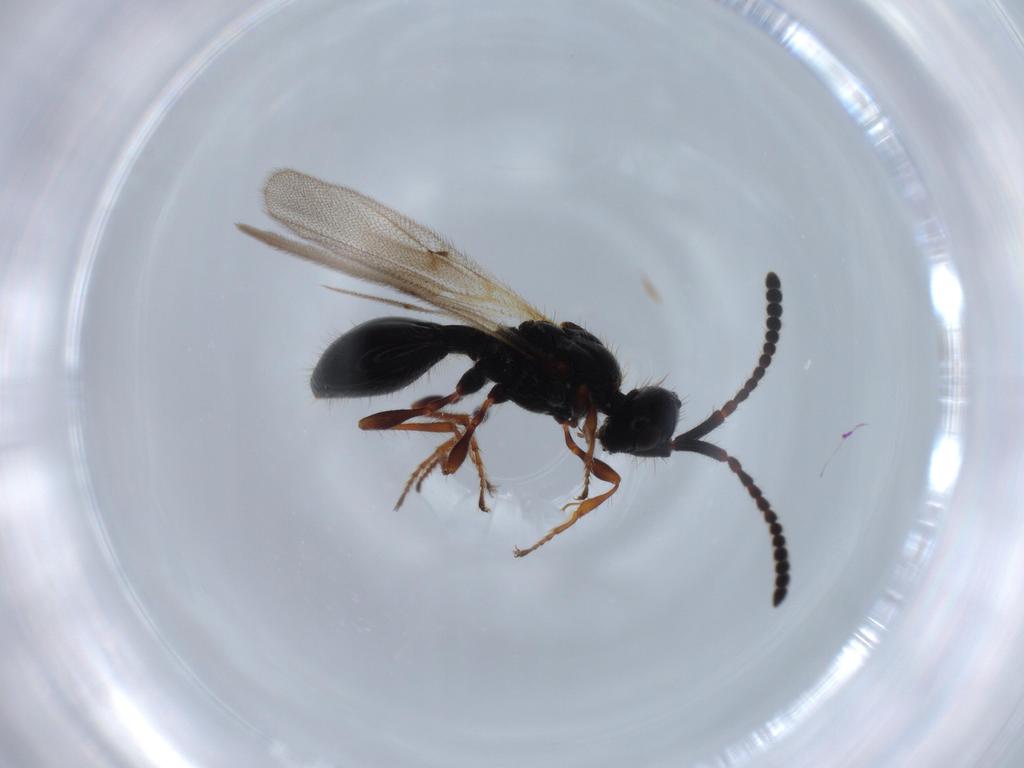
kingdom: Animalia
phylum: Arthropoda
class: Insecta
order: Hymenoptera
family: Diapriidae
